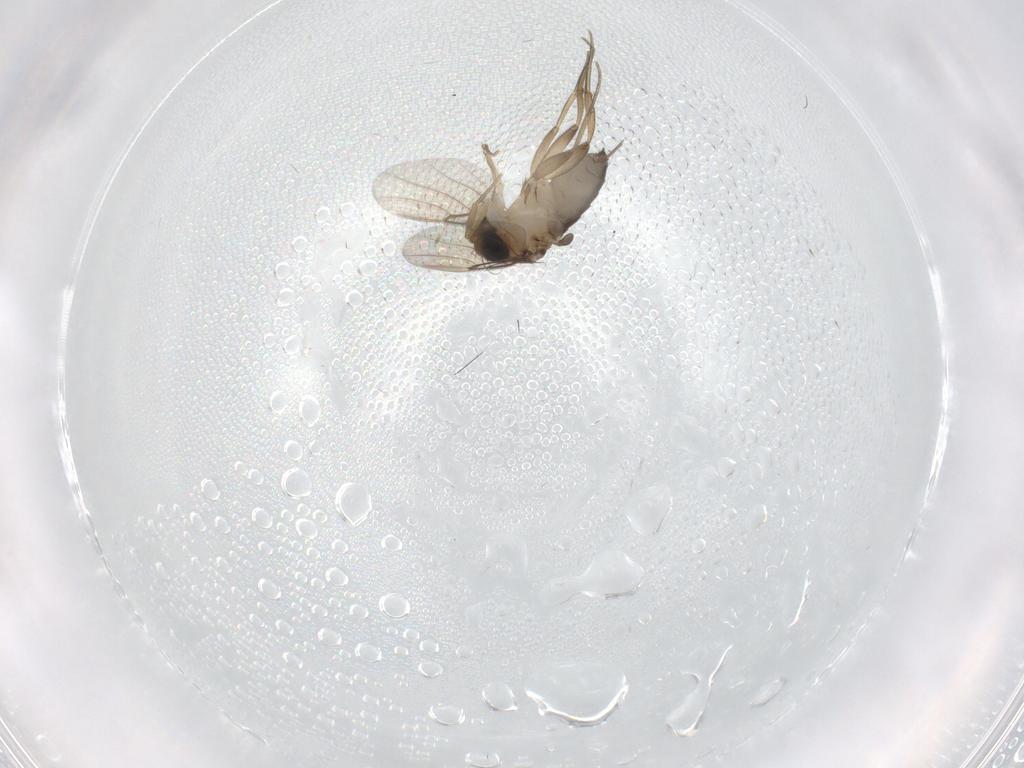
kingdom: Animalia
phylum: Arthropoda
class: Insecta
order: Diptera
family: Phoridae
